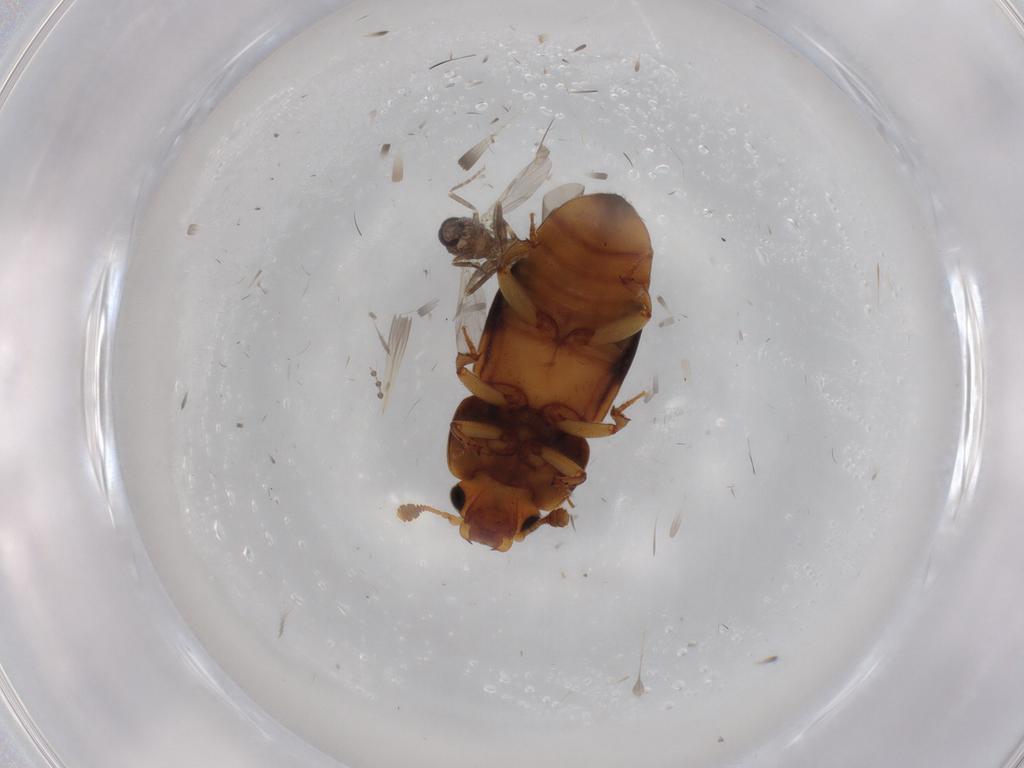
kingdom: Animalia
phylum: Arthropoda
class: Insecta
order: Coleoptera
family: Nitidulidae
